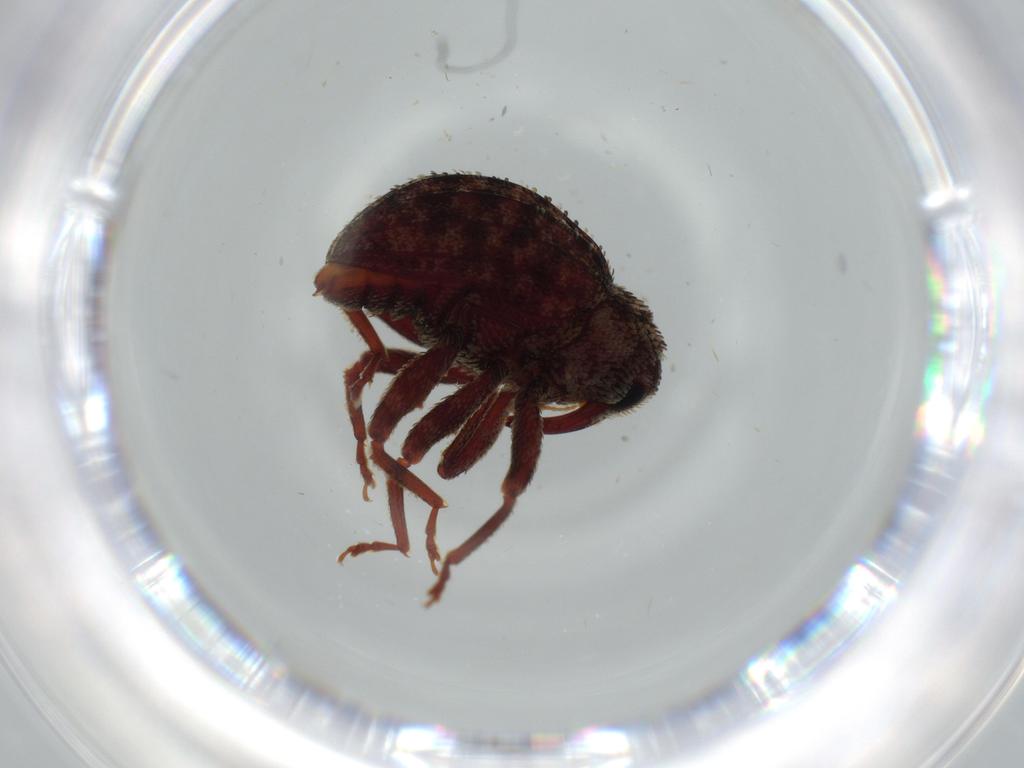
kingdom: Animalia
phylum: Arthropoda
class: Insecta
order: Coleoptera
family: Curculionidae
